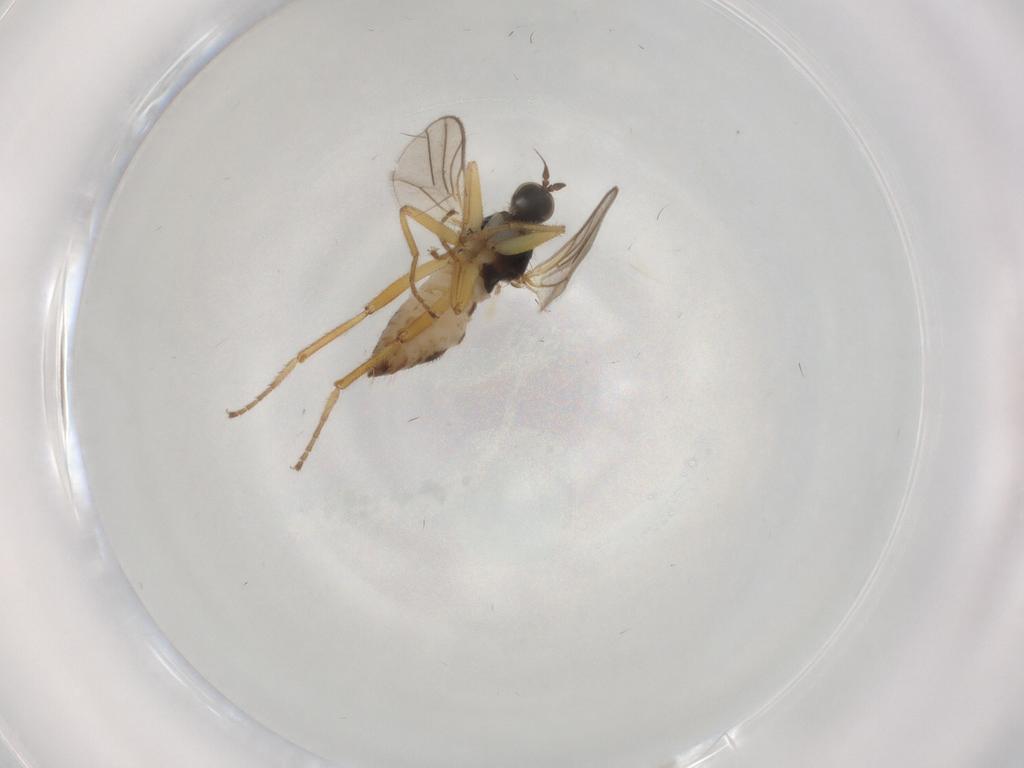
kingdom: Animalia
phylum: Arthropoda
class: Insecta
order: Diptera
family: Hybotidae
